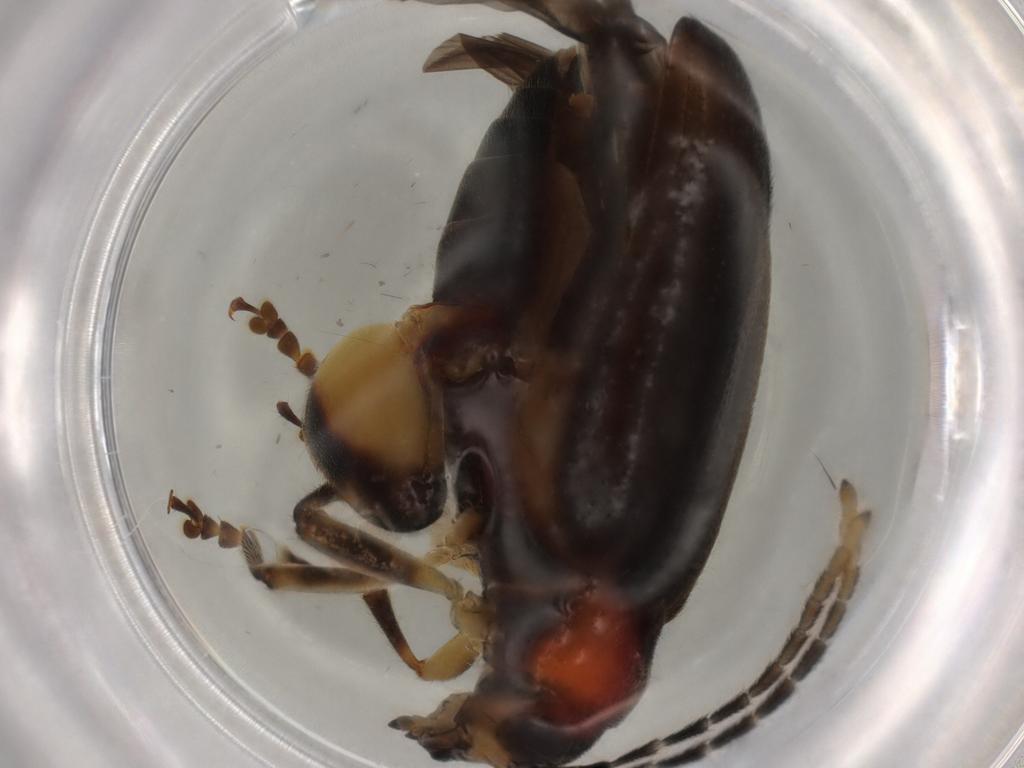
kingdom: Animalia
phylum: Arthropoda
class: Insecta
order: Coleoptera
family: Chrysomelidae
